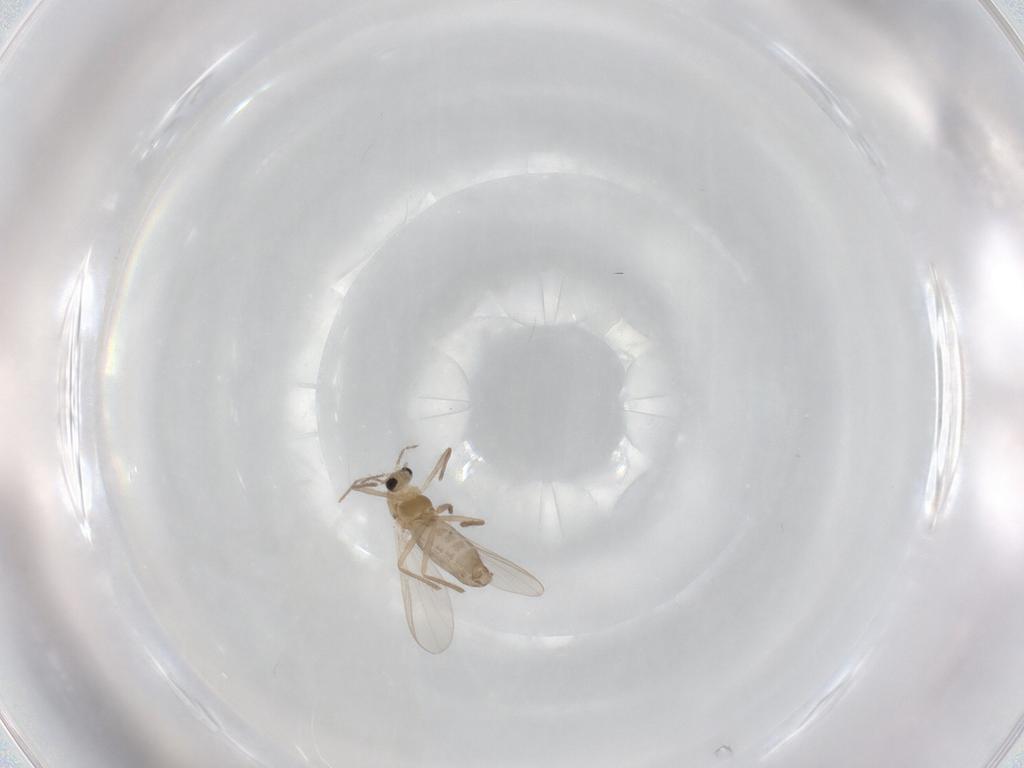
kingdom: Animalia
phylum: Arthropoda
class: Insecta
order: Diptera
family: Chironomidae
